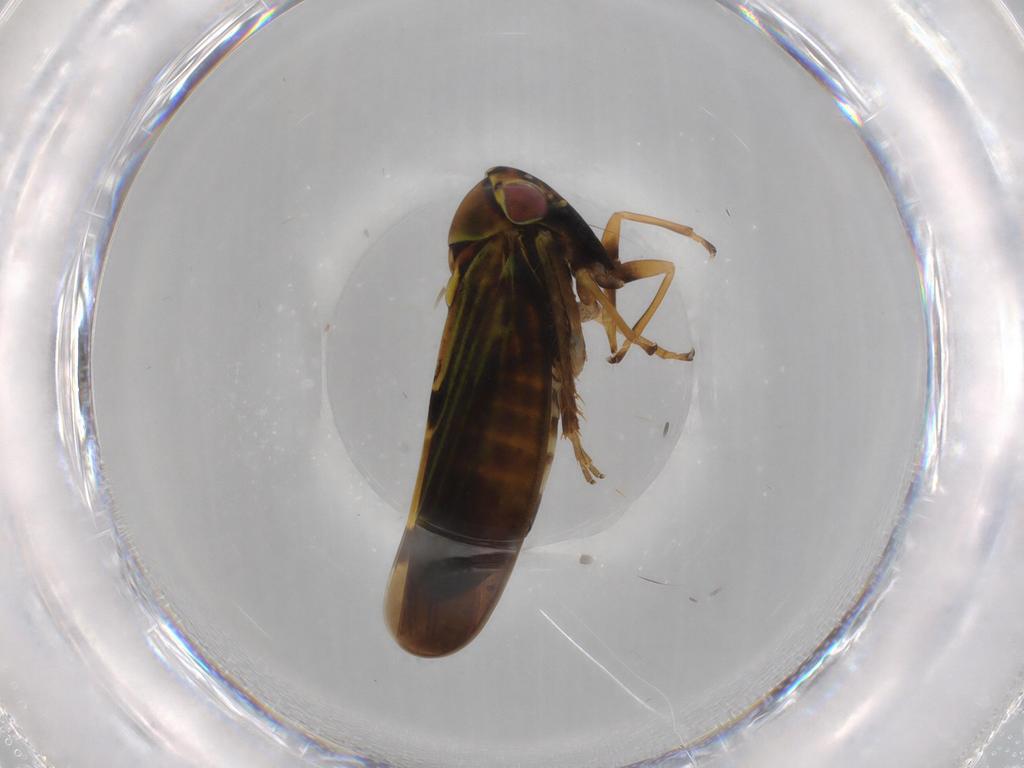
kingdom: Animalia
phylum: Arthropoda
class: Insecta
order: Hemiptera
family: Cicadellidae
